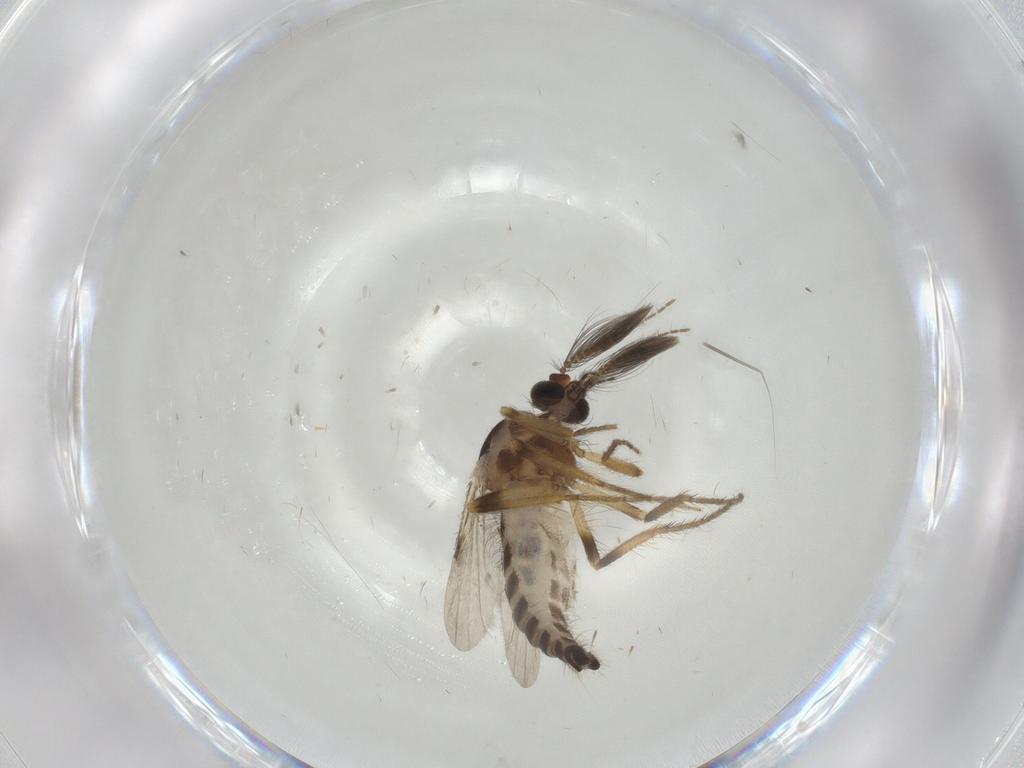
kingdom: Animalia
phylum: Arthropoda
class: Insecta
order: Diptera
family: Ceratopogonidae
